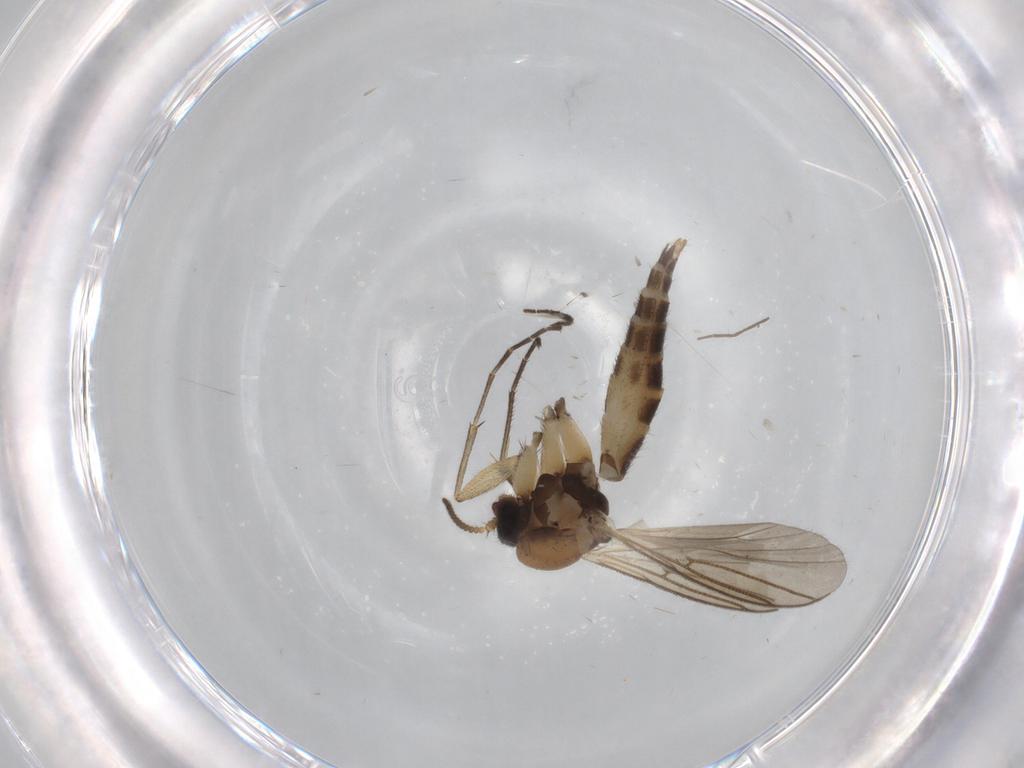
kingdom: Animalia
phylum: Arthropoda
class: Insecta
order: Diptera
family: Sciaridae
